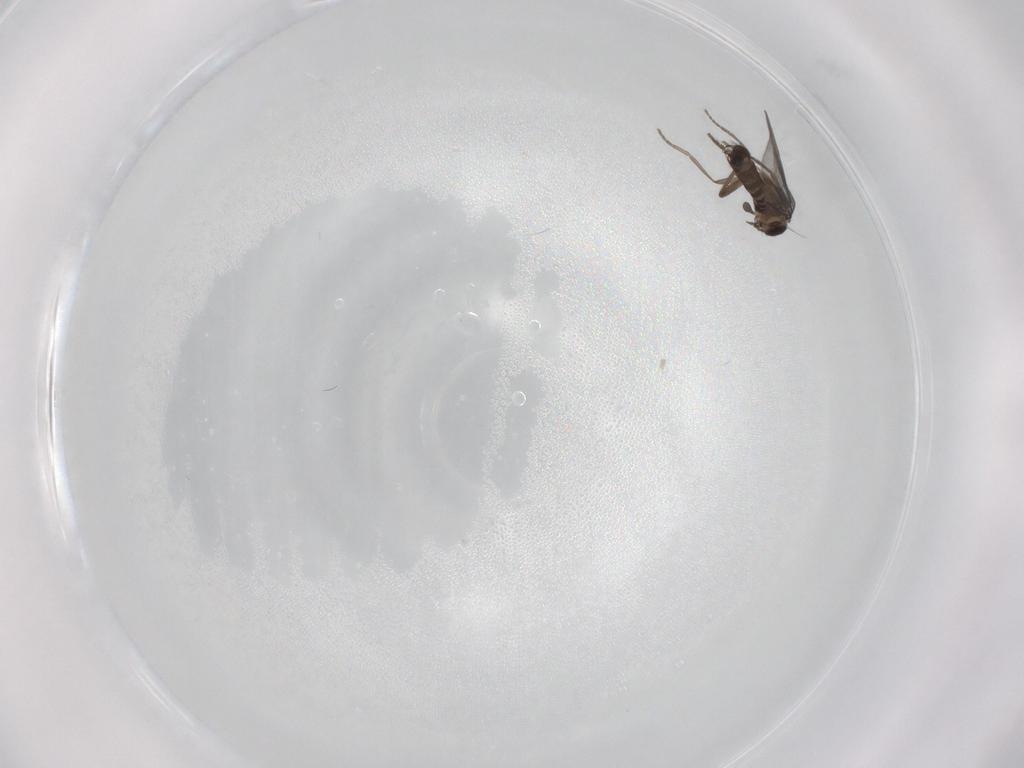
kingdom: Animalia
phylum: Arthropoda
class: Insecta
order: Diptera
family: Phoridae
